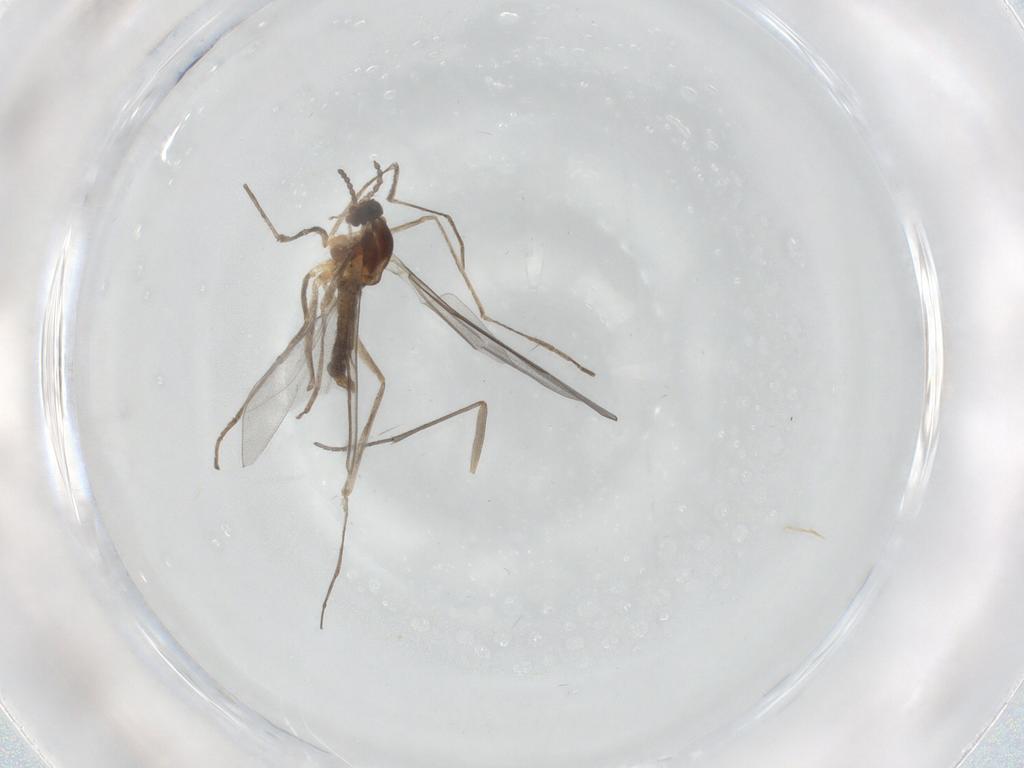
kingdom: Animalia
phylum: Arthropoda
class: Insecta
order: Diptera
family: Cecidomyiidae
